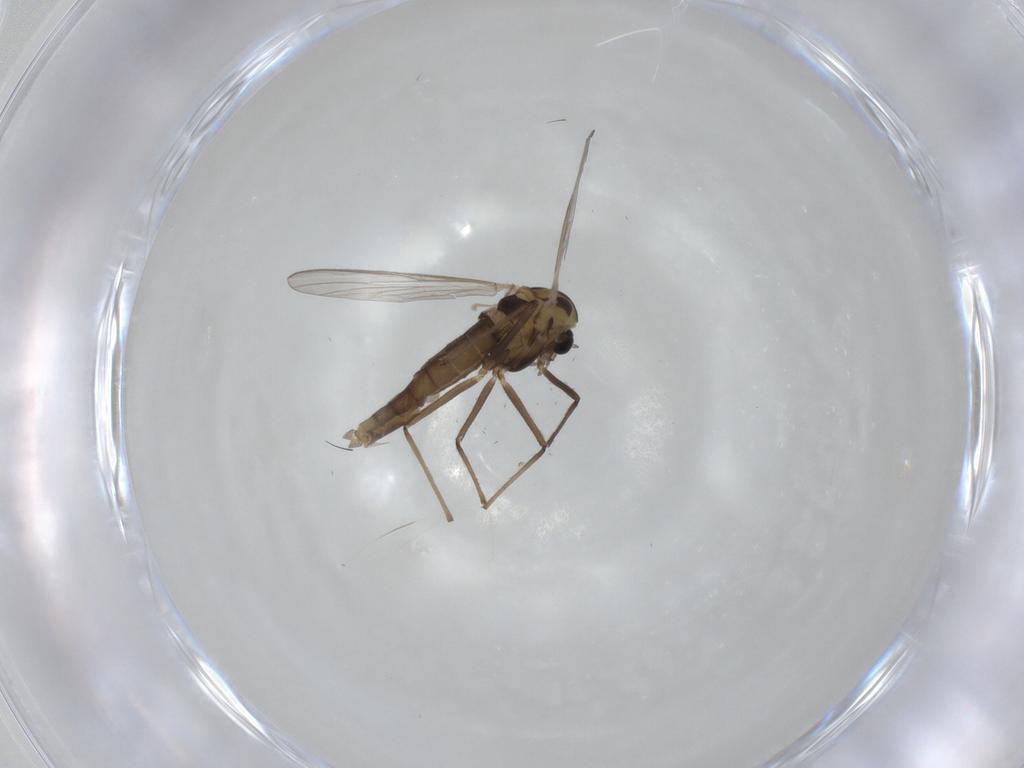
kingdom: Animalia
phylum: Arthropoda
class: Insecta
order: Diptera
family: Chironomidae
